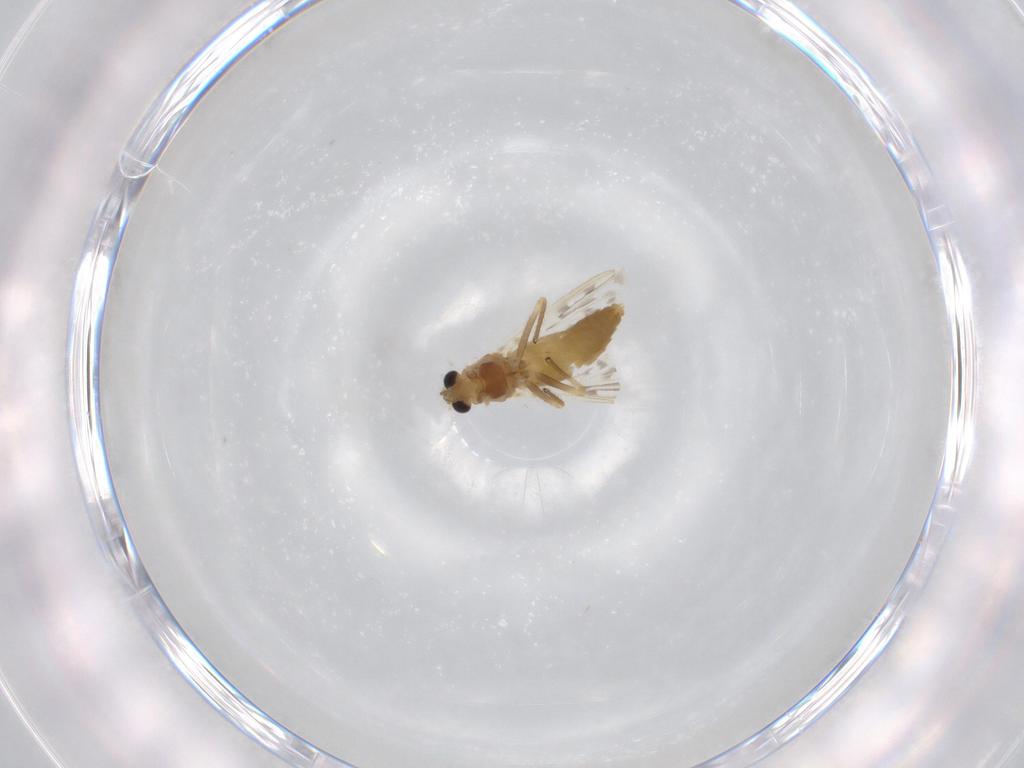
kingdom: Animalia
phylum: Arthropoda
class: Insecta
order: Diptera
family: Chironomidae
